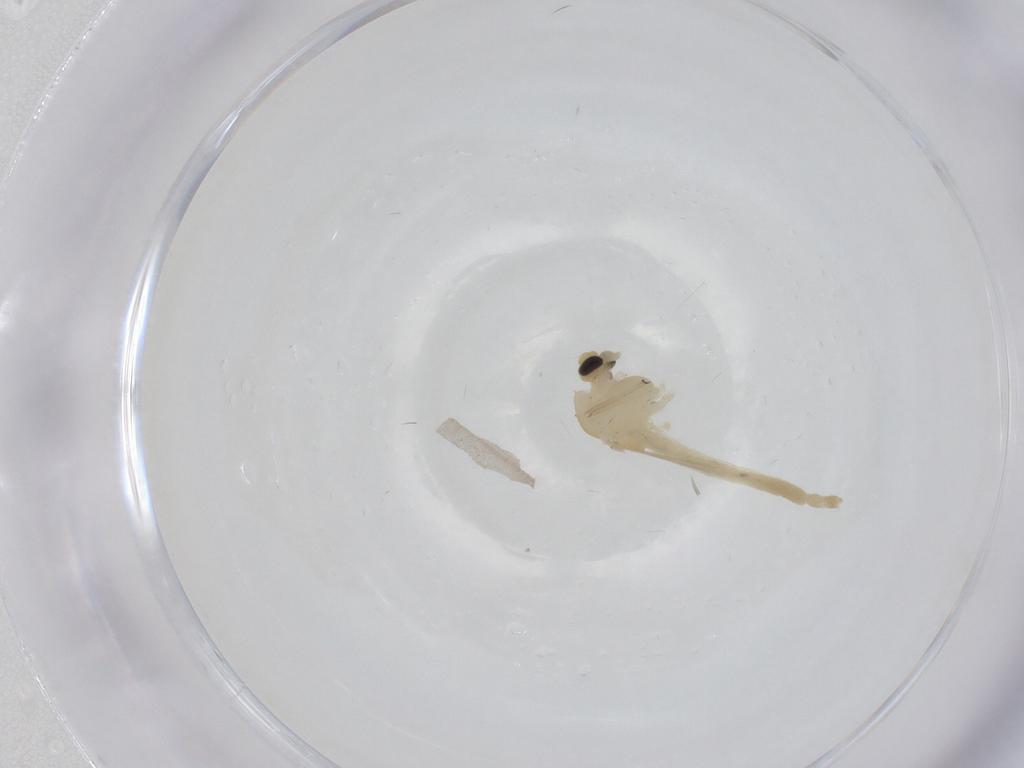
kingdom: Animalia
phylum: Arthropoda
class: Insecta
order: Diptera
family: Chironomidae
